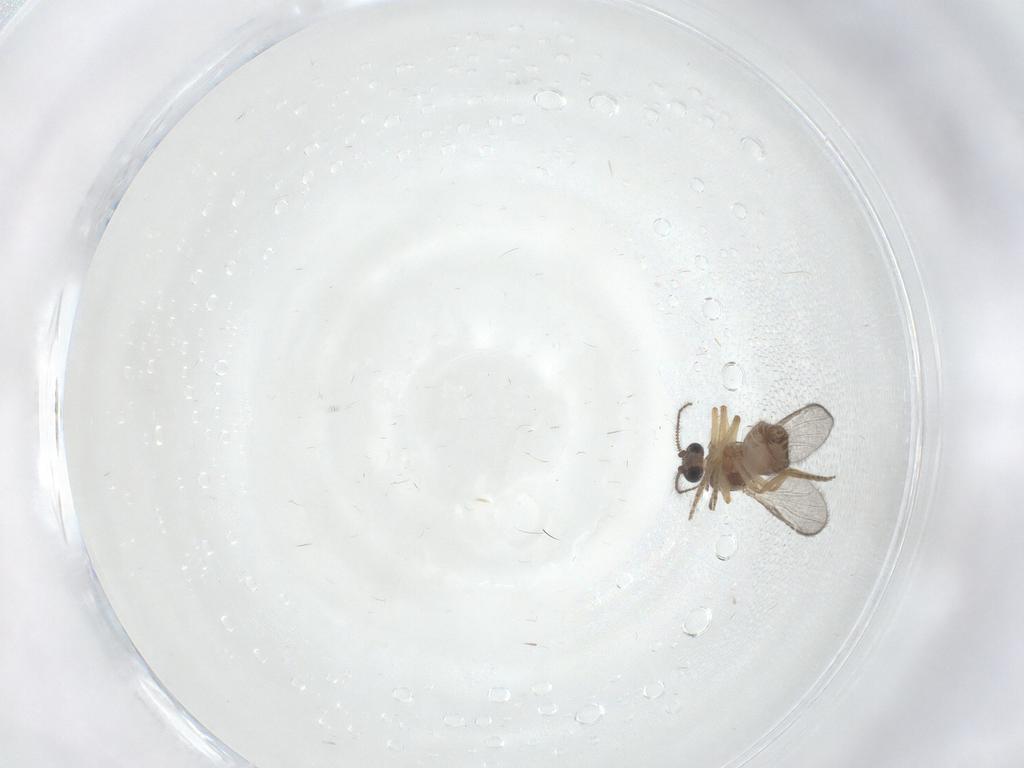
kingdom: Animalia
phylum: Arthropoda
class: Insecta
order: Diptera
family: Ceratopogonidae
